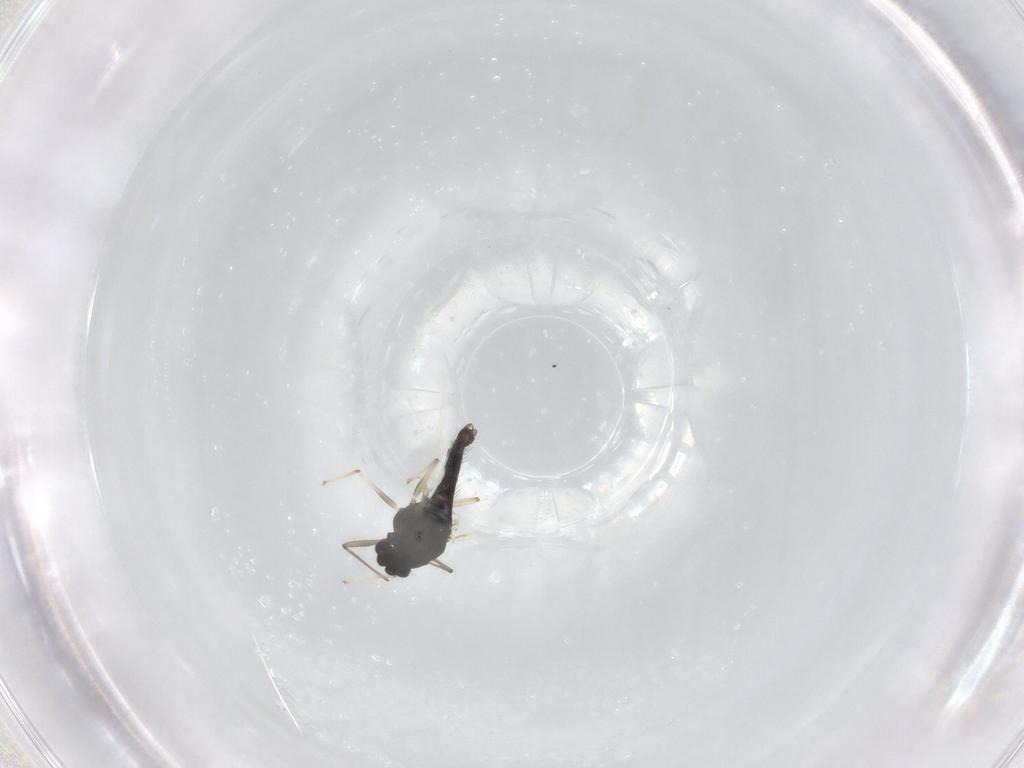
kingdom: Animalia
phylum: Arthropoda
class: Insecta
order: Diptera
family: Chironomidae
